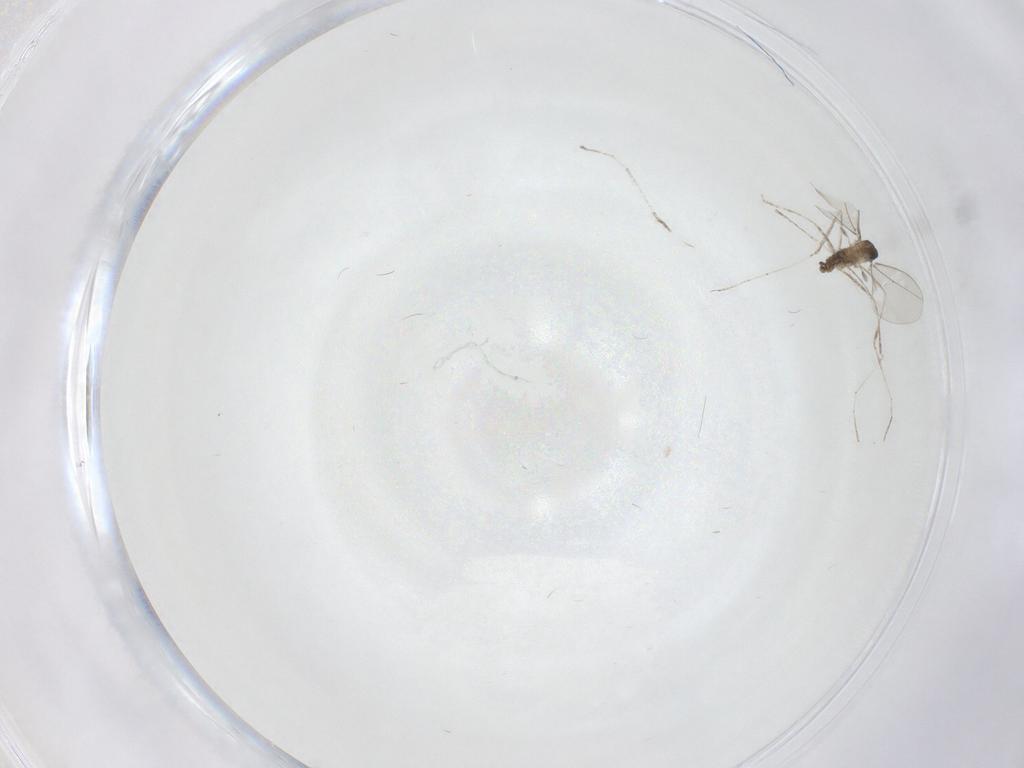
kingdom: Animalia
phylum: Arthropoda
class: Insecta
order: Diptera
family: Cecidomyiidae
